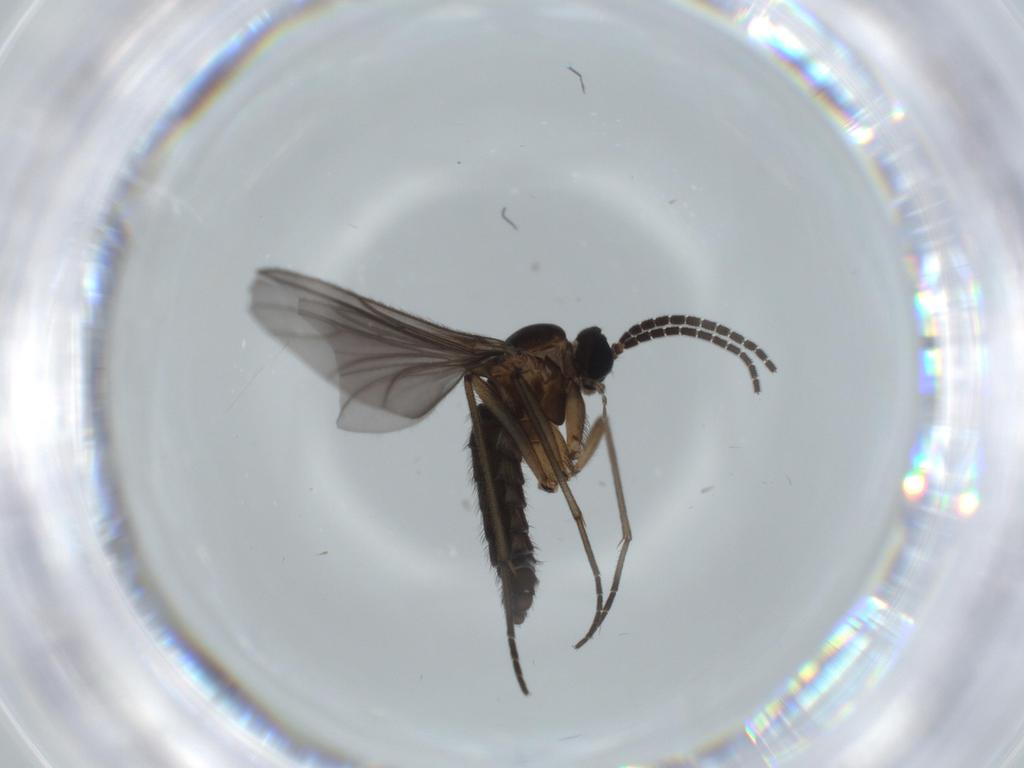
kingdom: Animalia
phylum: Arthropoda
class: Insecta
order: Diptera
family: Sciaridae
